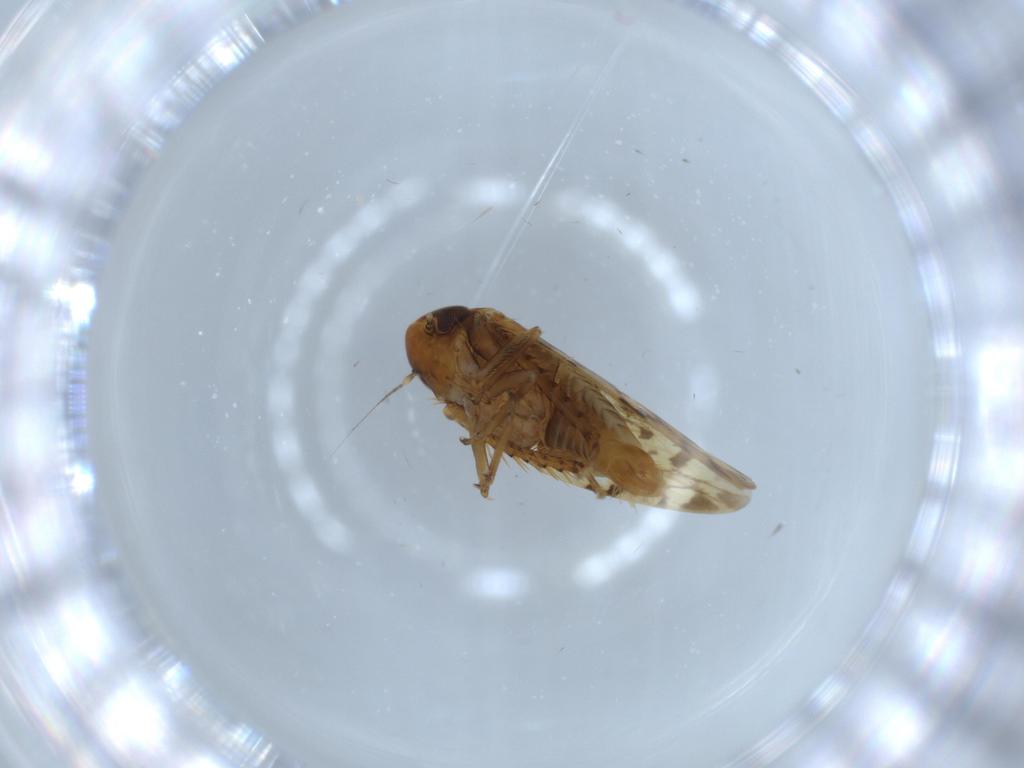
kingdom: Animalia
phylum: Arthropoda
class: Insecta
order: Hemiptera
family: Cicadellidae
